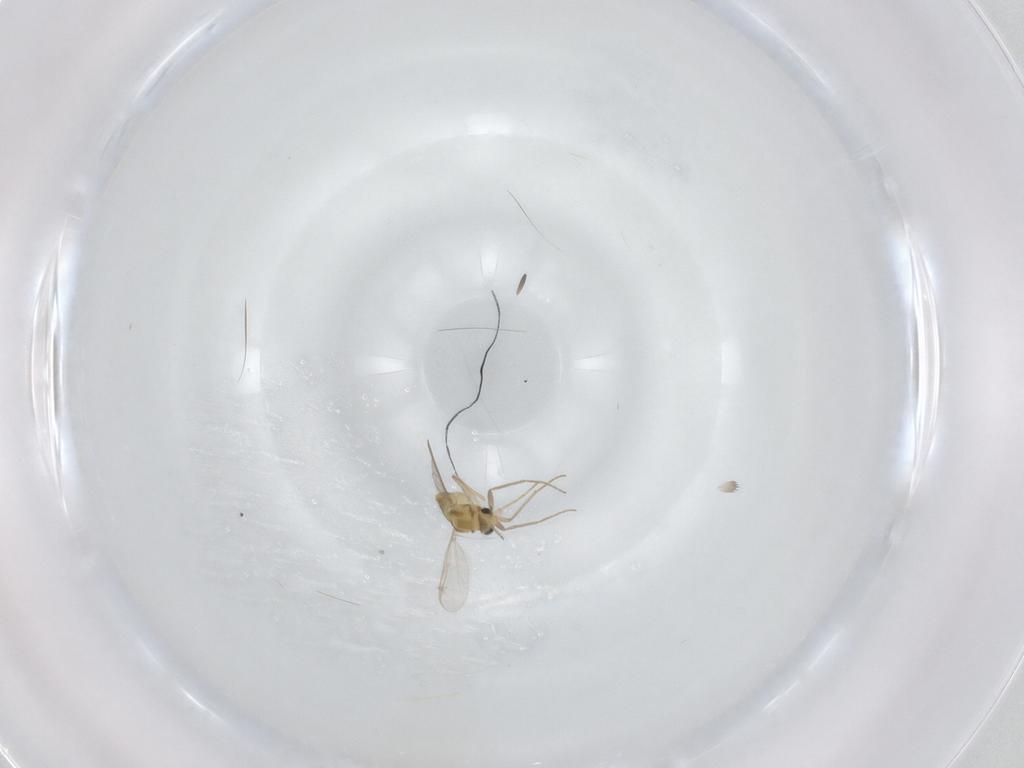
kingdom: Animalia
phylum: Arthropoda
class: Insecta
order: Diptera
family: Chironomidae
